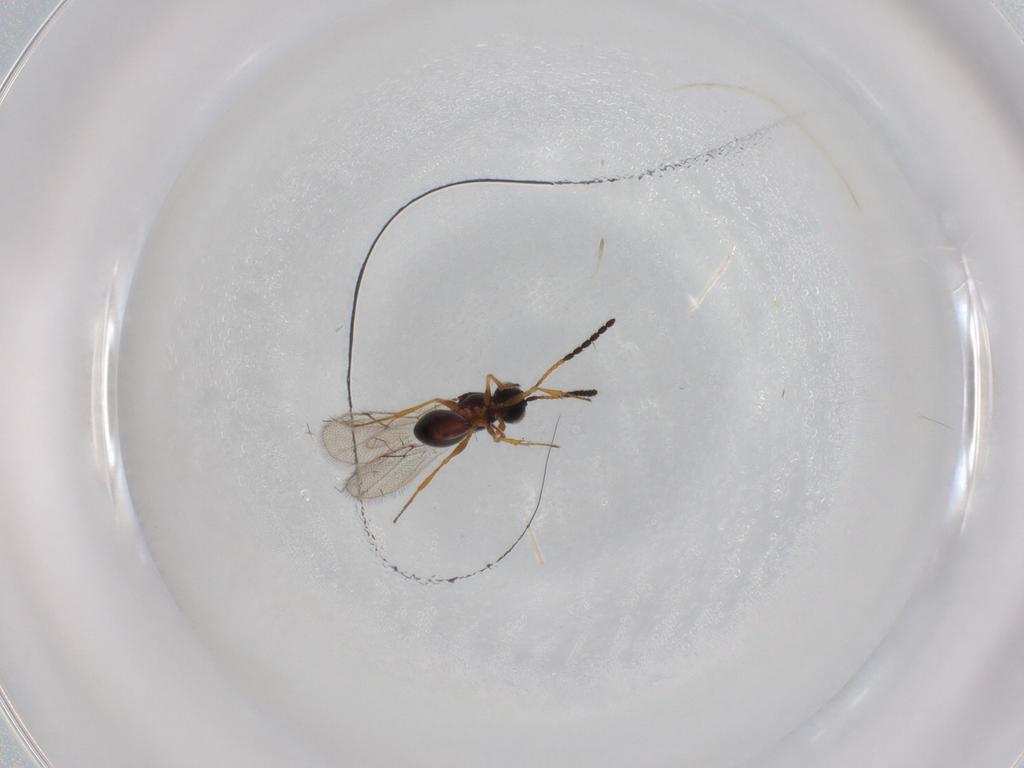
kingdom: Animalia
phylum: Arthropoda
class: Insecta
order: Hymenoptera
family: Figitidae
